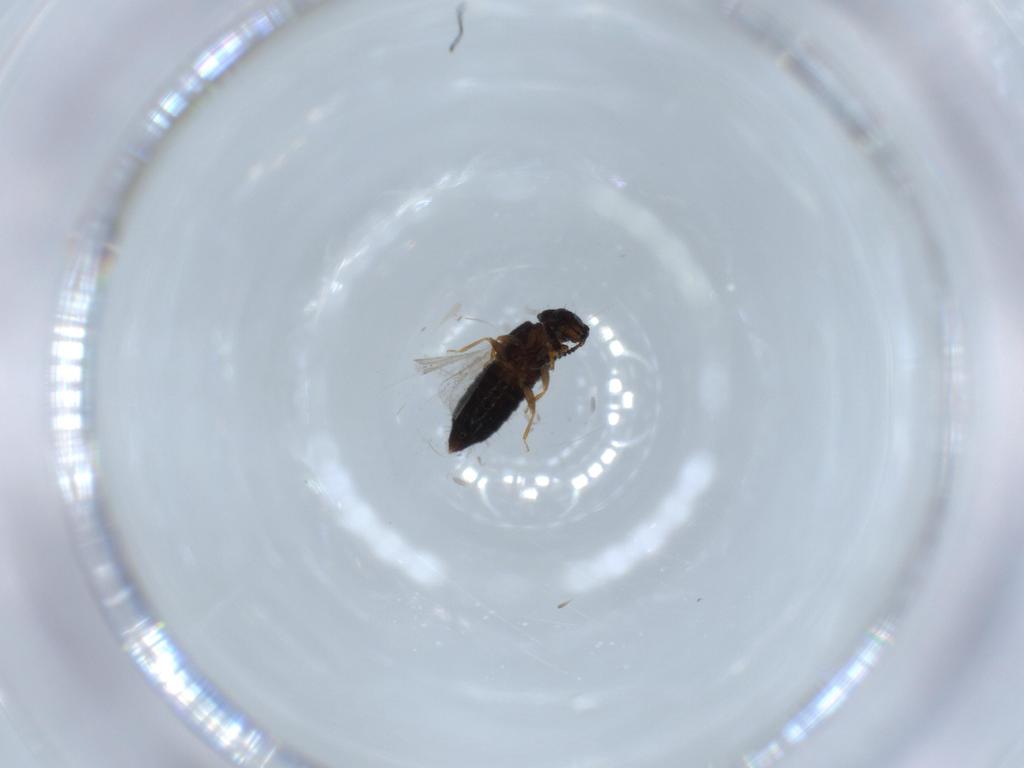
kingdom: Animalia
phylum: Arthropoda
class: Insecta
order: Coleoptera
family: Staphylinidae
